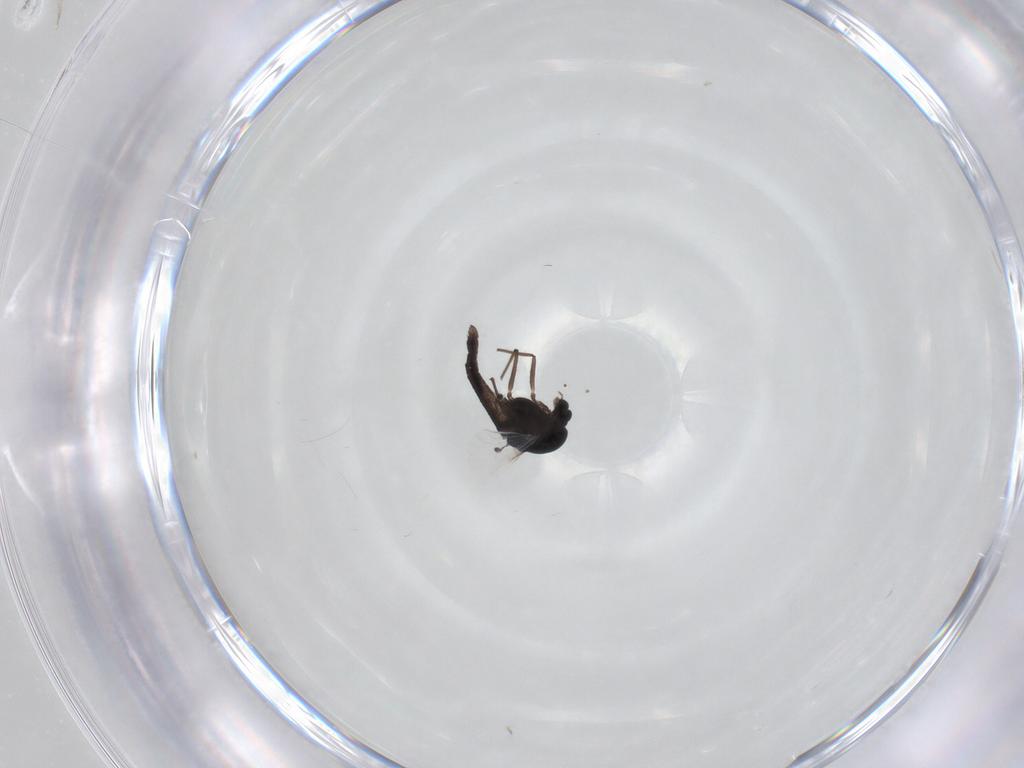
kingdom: Animalia
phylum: Arthropoda
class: Insecta
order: Diptera
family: Chironomidae
